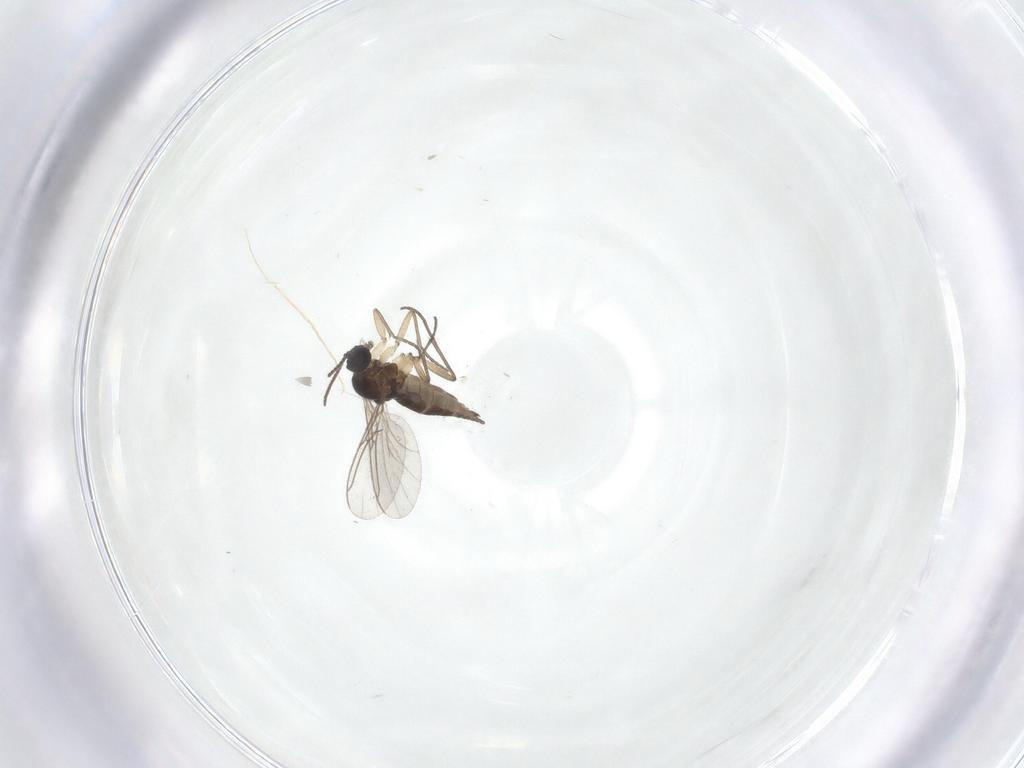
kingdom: Animalia
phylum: Arthropoda
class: Insecta
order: Diptera
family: Sciaridae
